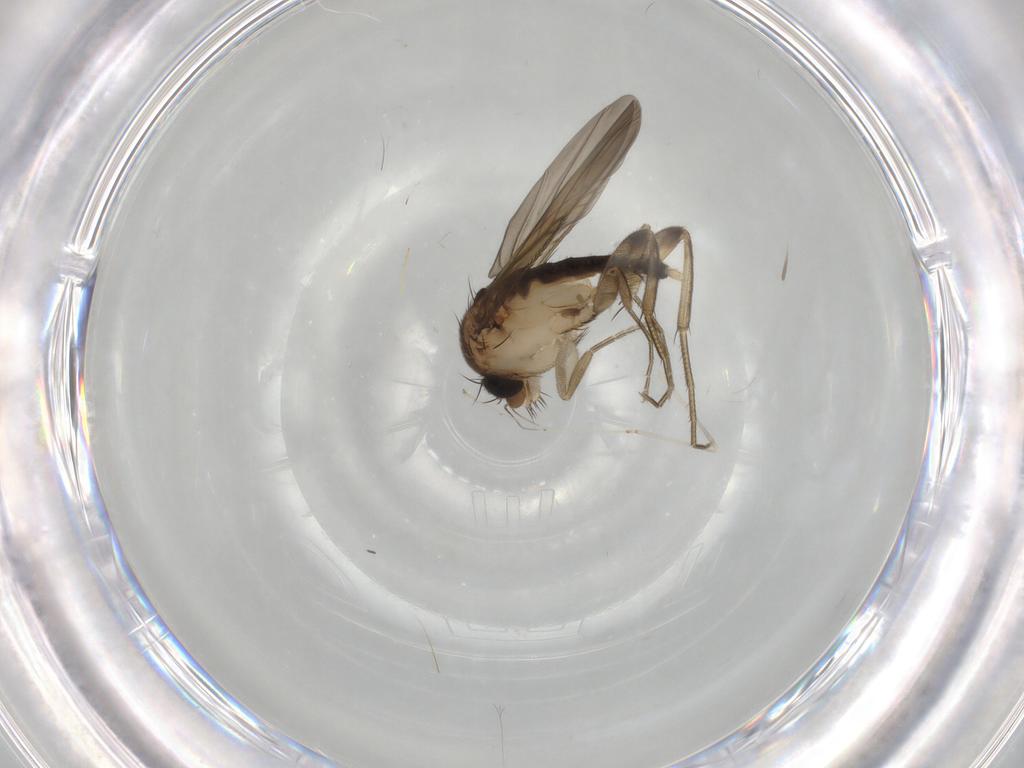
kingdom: Animalia
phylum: Arthropoda
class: Insecta
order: Diptera
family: Phoridae
